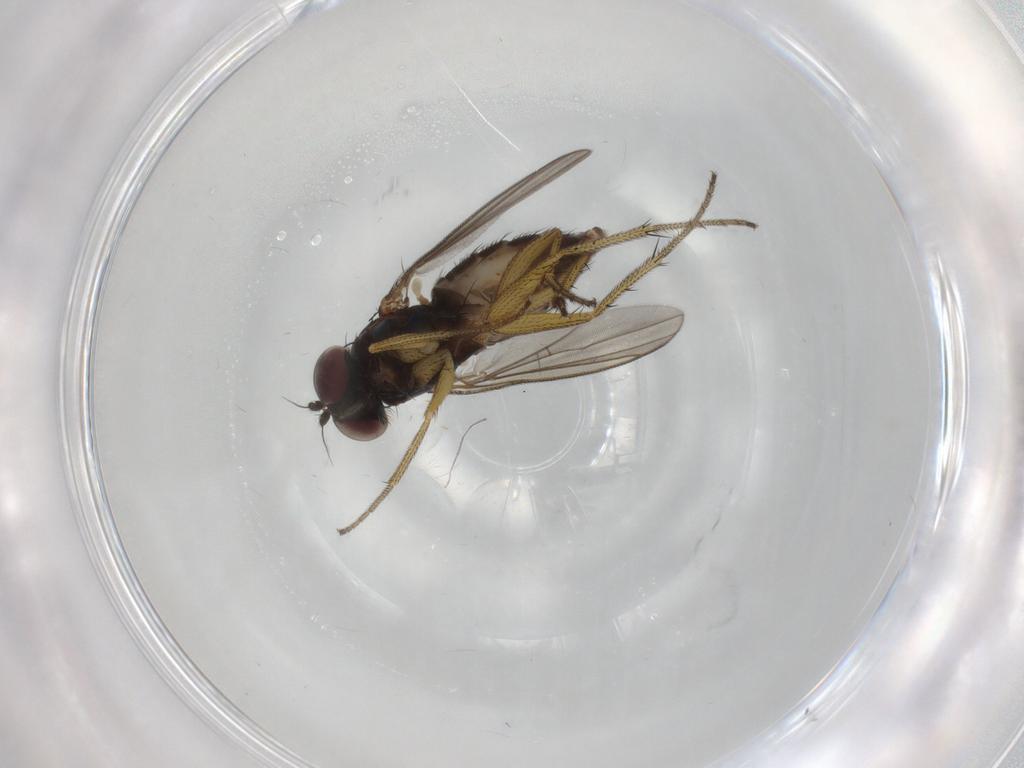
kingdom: Animalia
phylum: Arthropoda
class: Insecta
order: Diptera
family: Dolichopodidae
